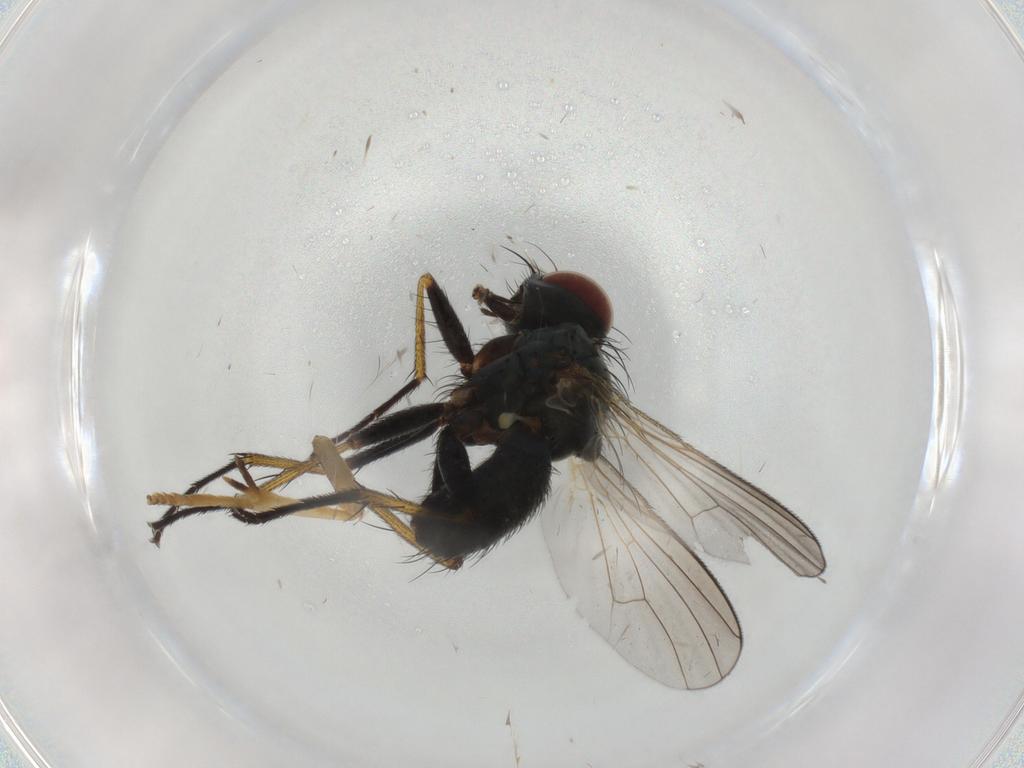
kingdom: Animalia
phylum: Arthropoda
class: Insecta
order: Diptera
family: Muscidae
